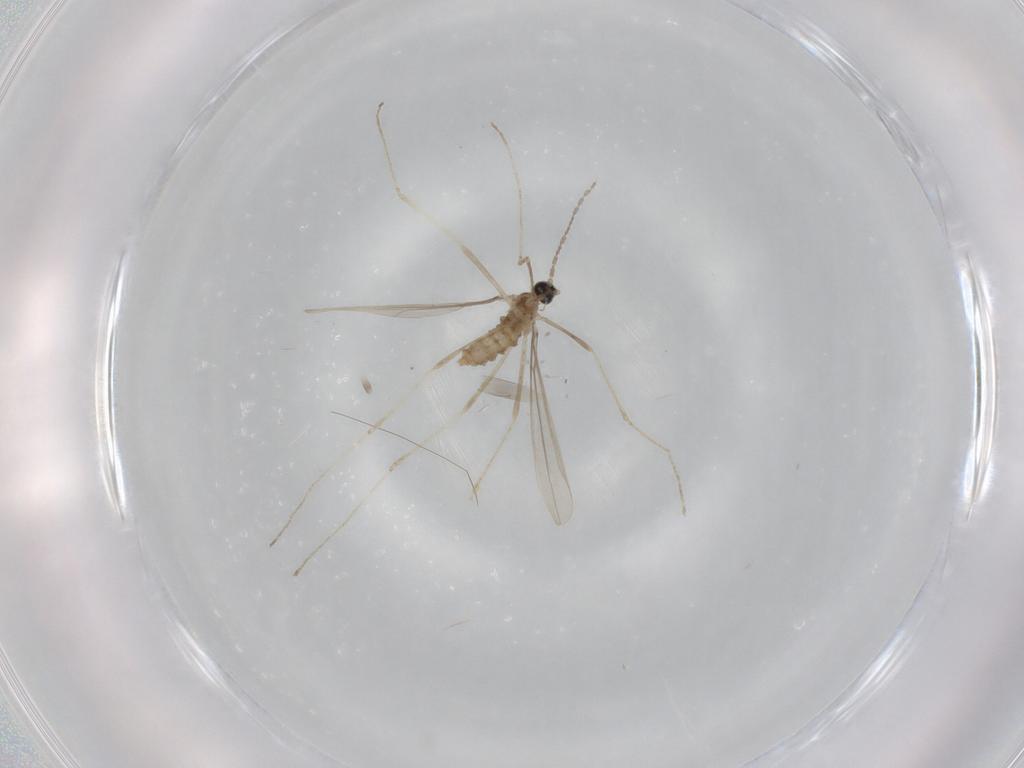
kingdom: Animalia
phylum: Arthropoda
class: Insecta
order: Diptera
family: Cecidomyiidae
